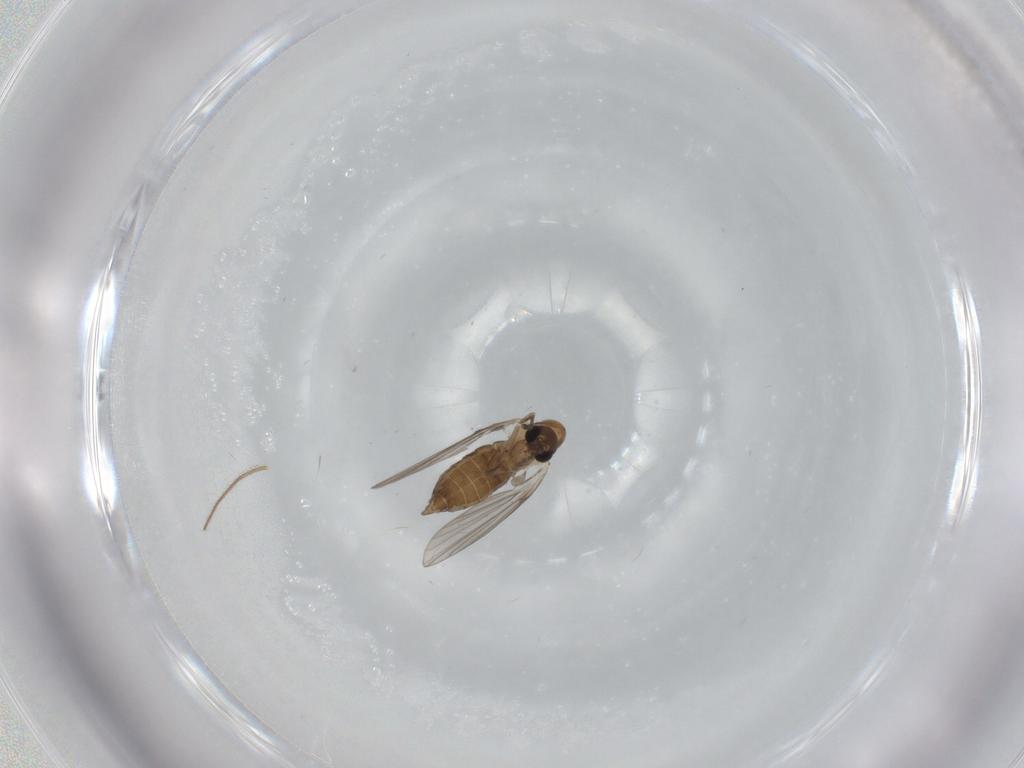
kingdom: Animalia
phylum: Arthropoda
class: Insecta
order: Diptera
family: Psychodidae
